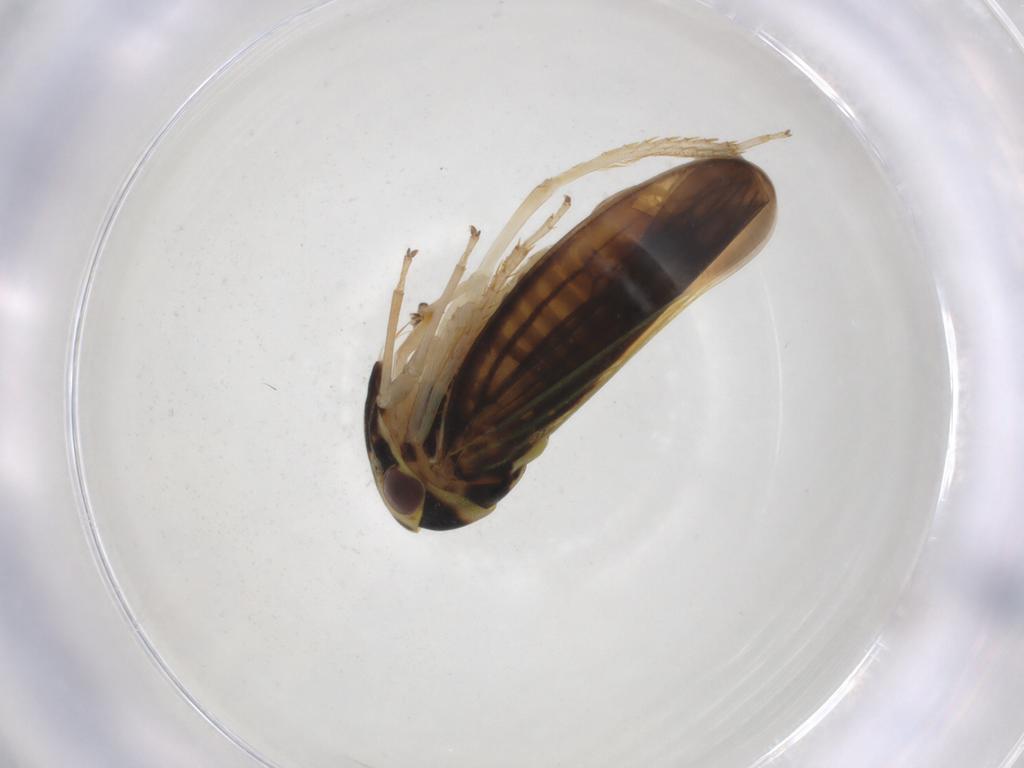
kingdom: Animalia
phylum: Arthropoda
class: Insecta
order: Hemiptera
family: Cicadellidae
